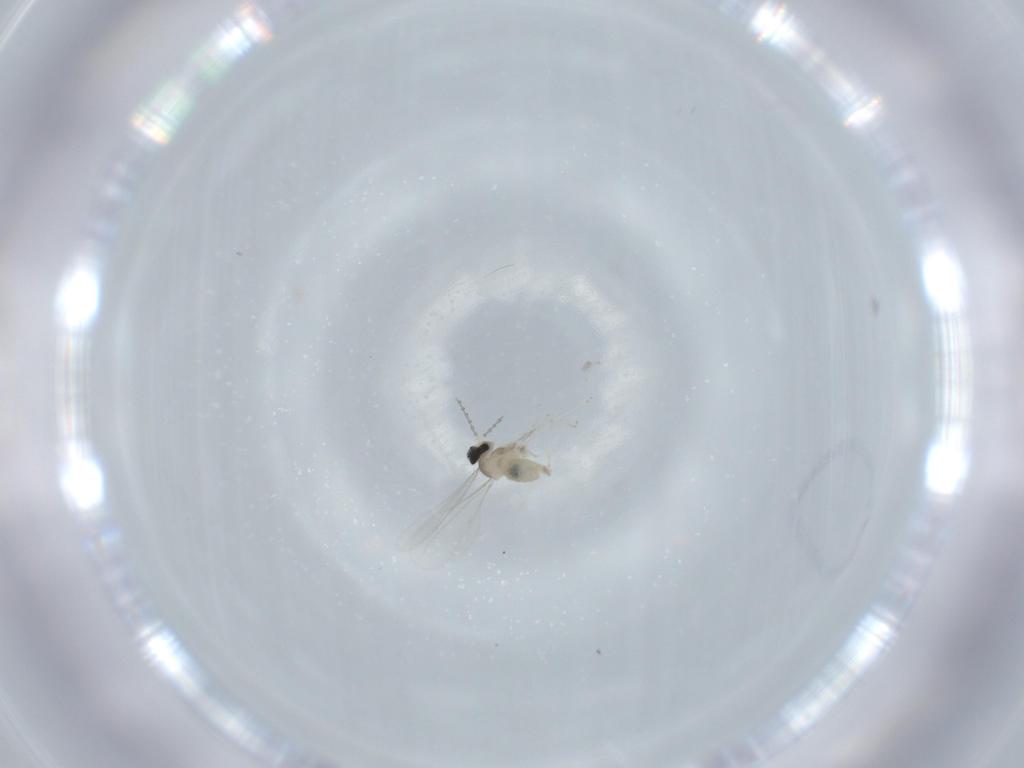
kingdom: Animalia
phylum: Arthropoda
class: Insecta
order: Diptera
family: Cecidomyiidae
